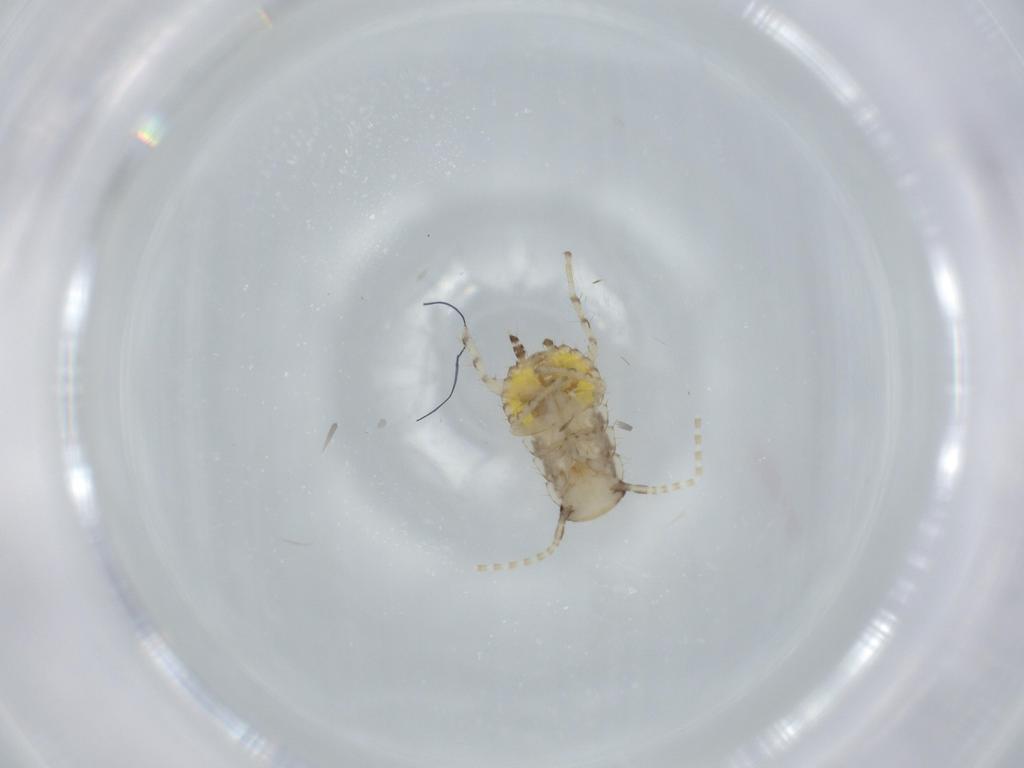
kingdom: Animalia
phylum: Arthropoda
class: Insecta
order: Blattodea
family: Ectobiidae
